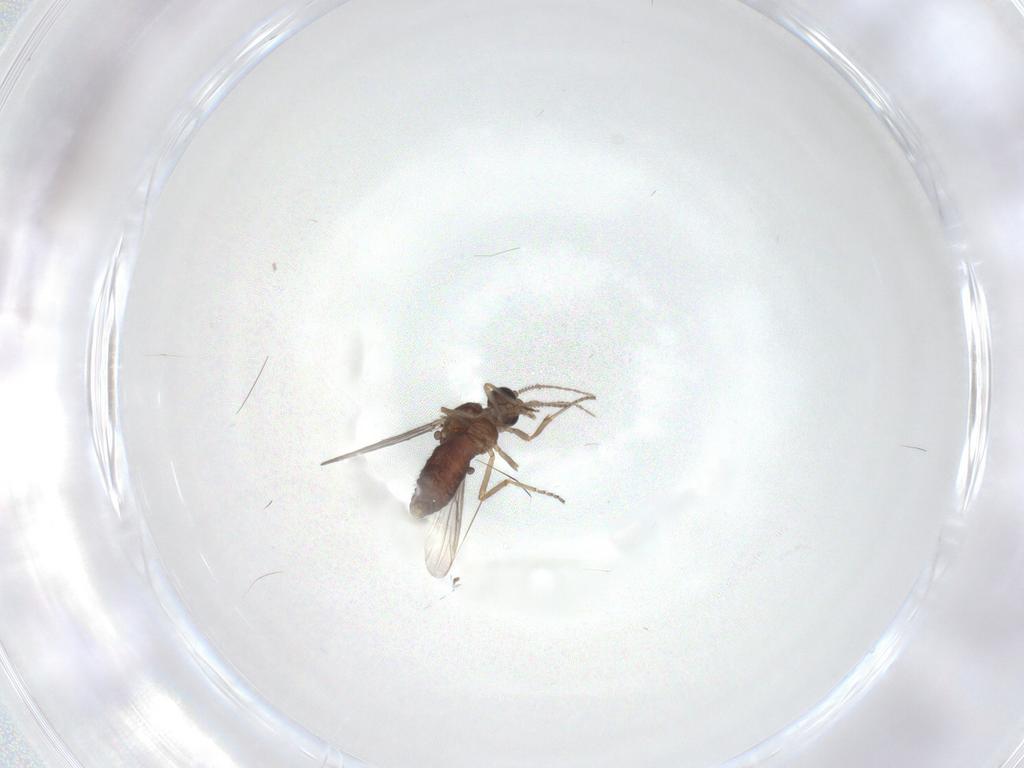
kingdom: Animalia
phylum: Arthropoda
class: Insecta
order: Diptera
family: Ceratopogonidae
